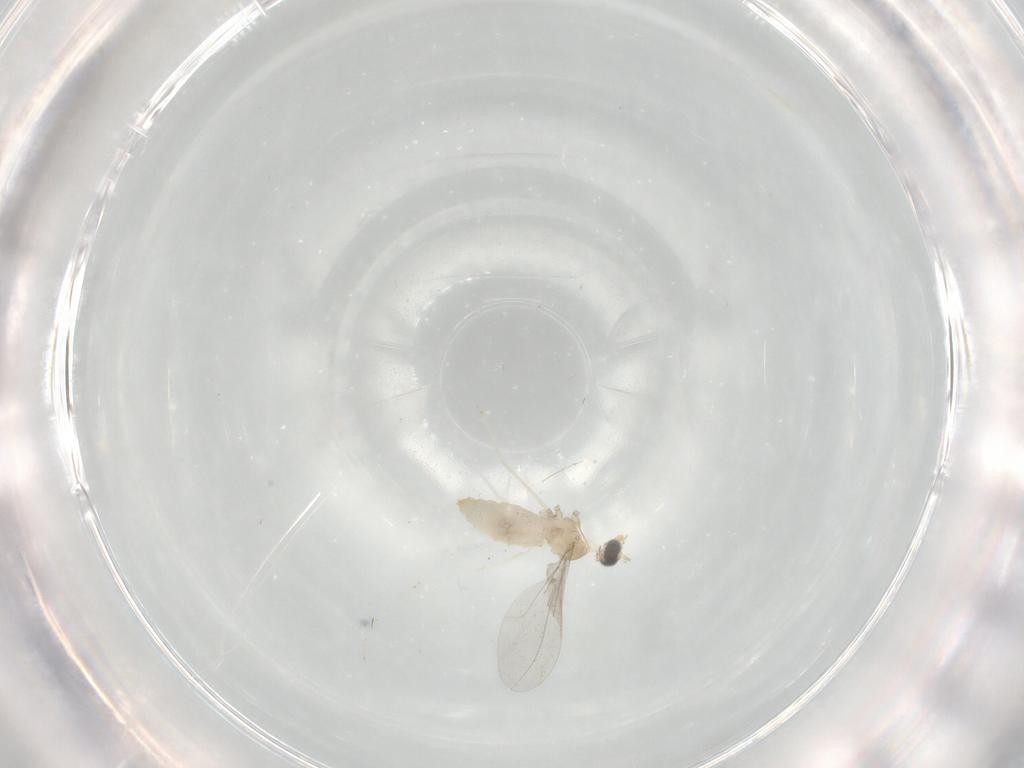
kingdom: Animalia
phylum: Arthropoda
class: Insecta
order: Diptera
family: Cecidomyiidae
